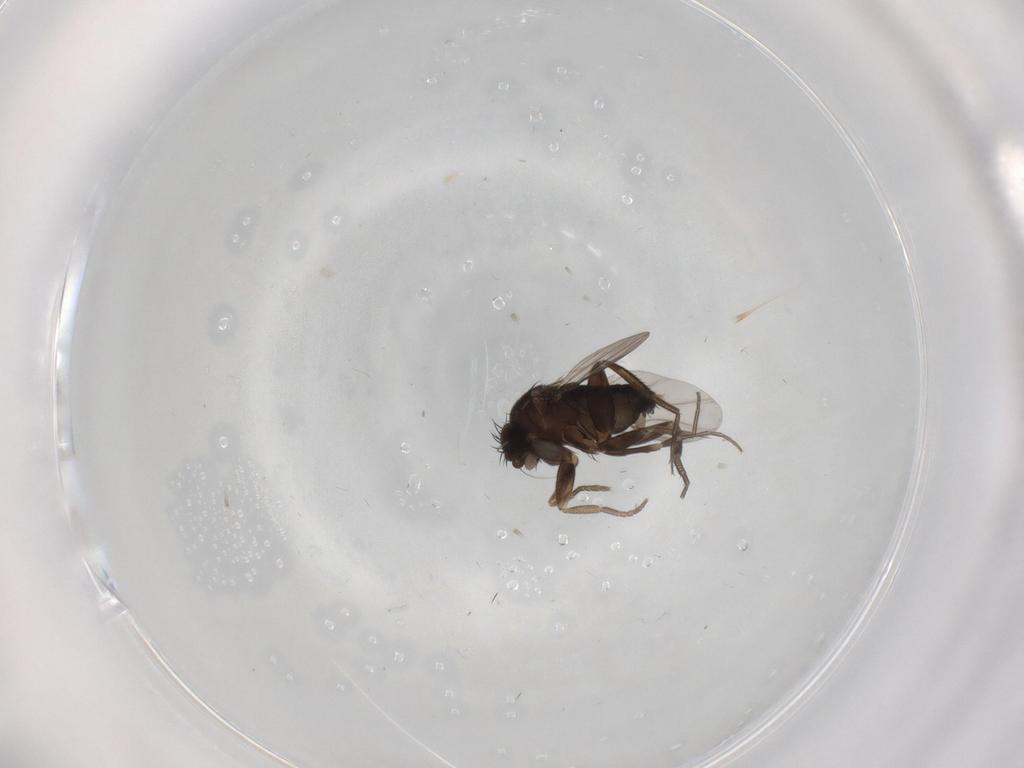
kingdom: Animalia
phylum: Arthropoda
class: Insecta
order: Diptera
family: Phoridae
